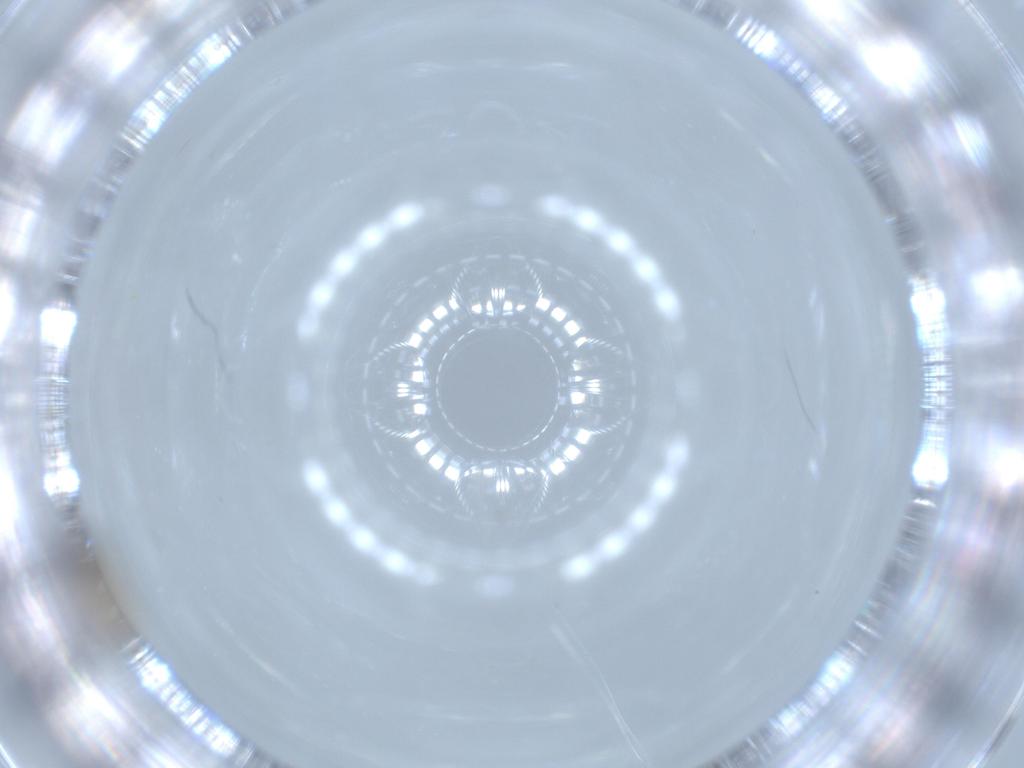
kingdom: Animalia
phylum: Arthropoda
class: Insecta
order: Diptera
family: Cecidomyiidae
